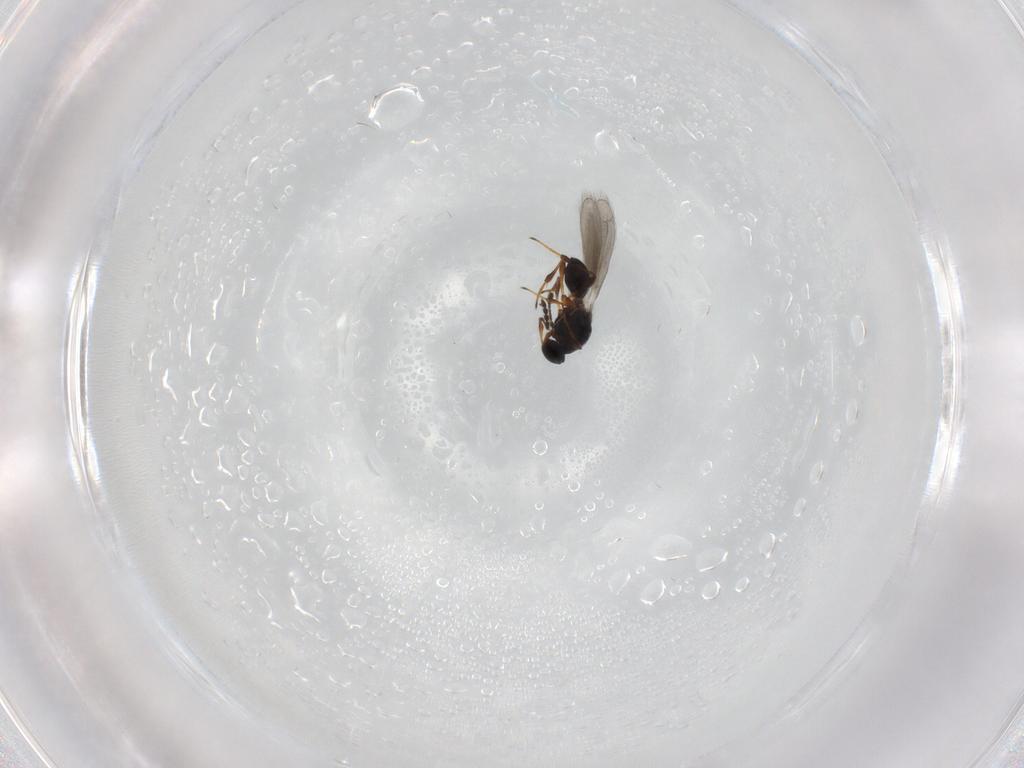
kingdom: Animalia
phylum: Arthropoda
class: Insecta
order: Hymenoptera
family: Platygastridae
